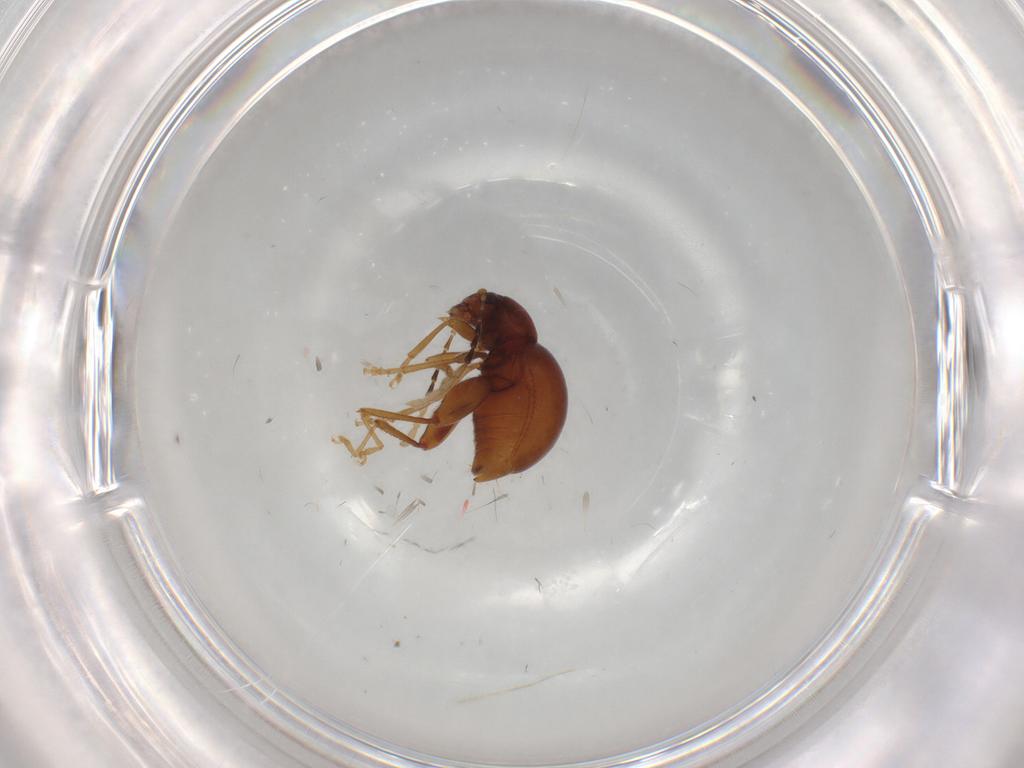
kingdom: Animalia
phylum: Arthropoda
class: Insecta
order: Coleoptera
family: Chrysomelidae
